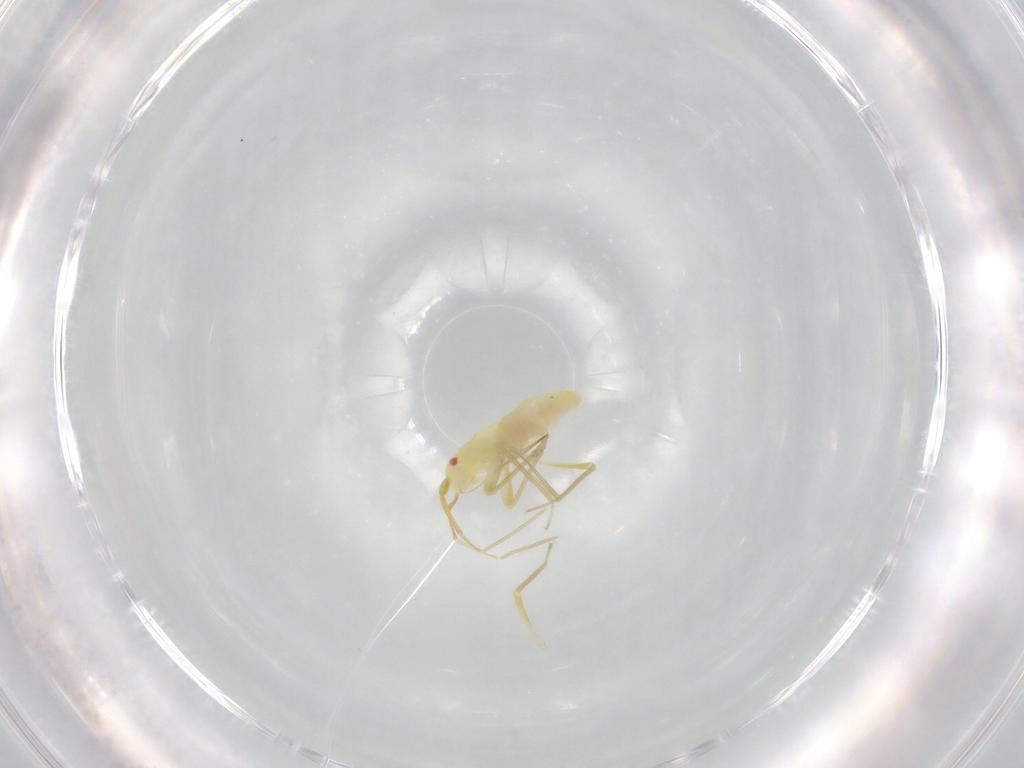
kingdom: Animalia
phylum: Arthropoda
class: Insecta
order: Hemiptera
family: Miridae
